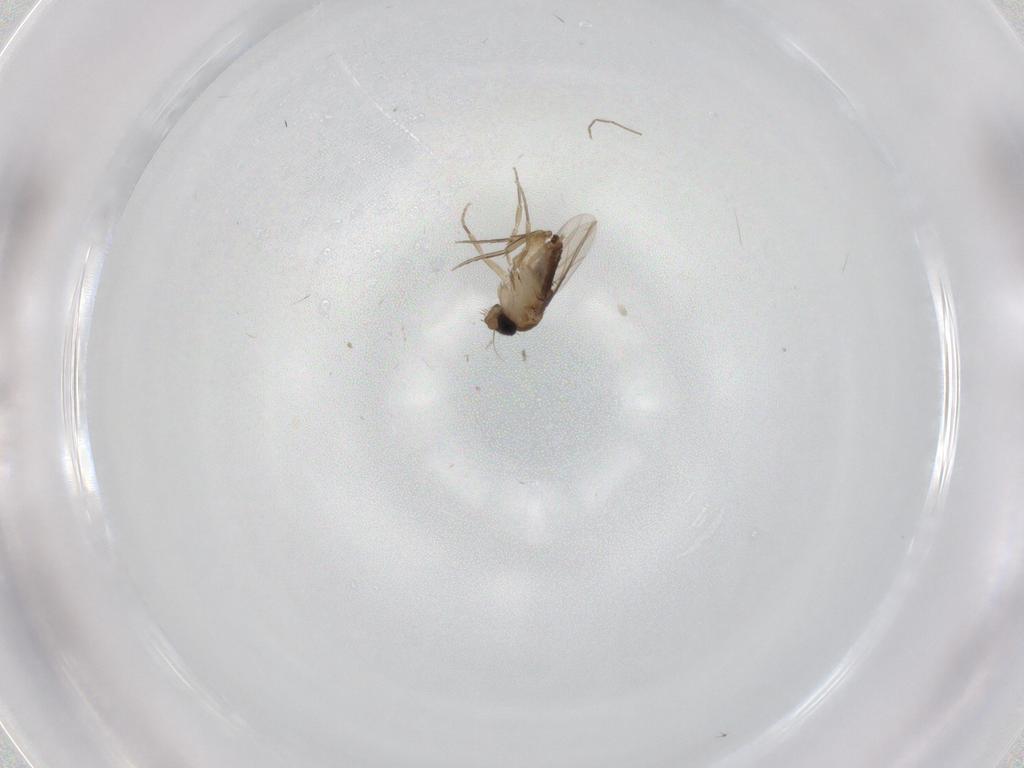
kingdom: Animalia
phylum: Arthropoda
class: Insecta
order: Diptera
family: Phoridae
